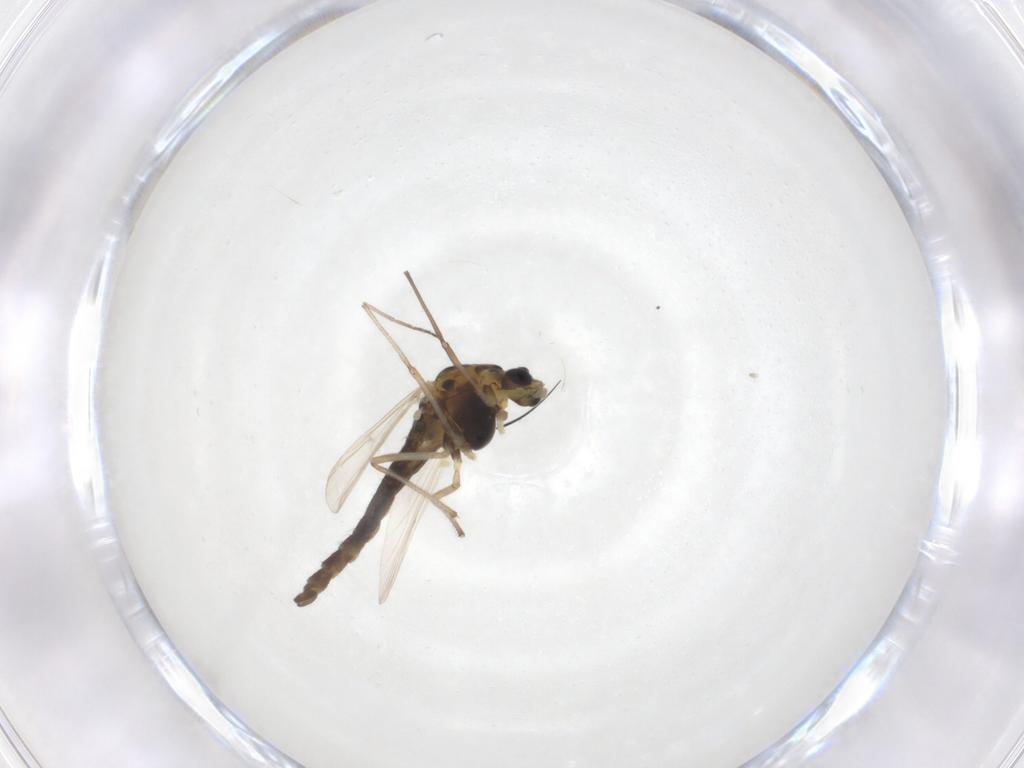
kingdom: Animalia
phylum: Arthropoda
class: Insecta
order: Diptera
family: Chironomidae
